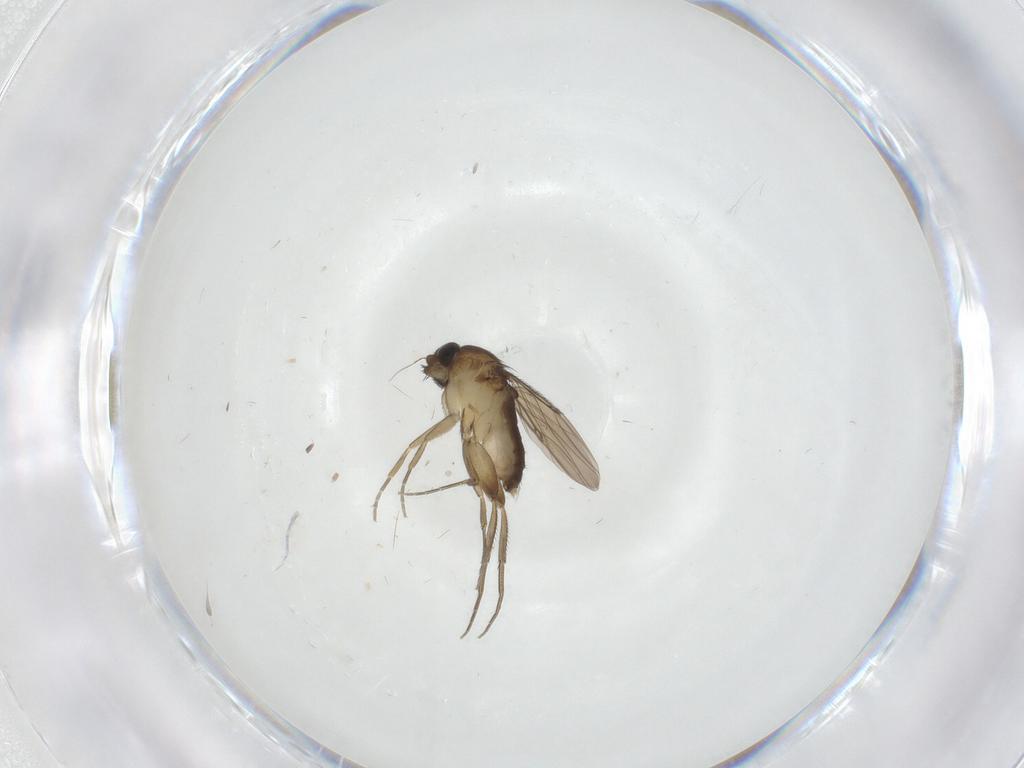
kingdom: Animalia
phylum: Arthropoda
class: Insecta
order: Diptera
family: Phoridae
